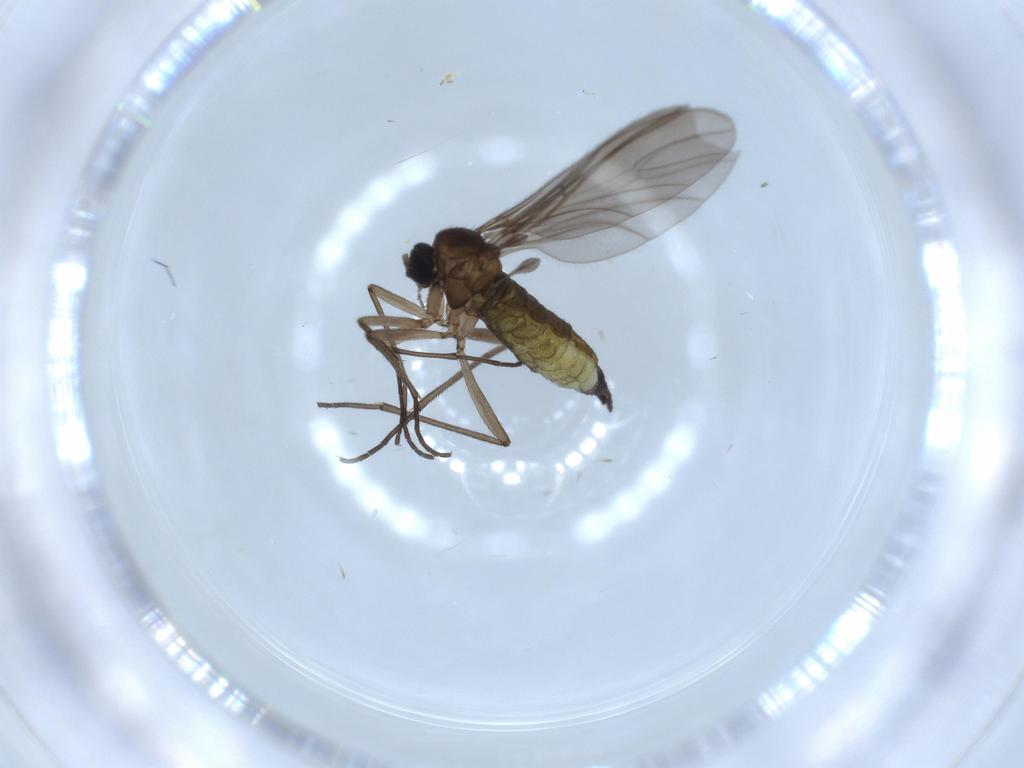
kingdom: Animalia
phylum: Arthropoda
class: Insecta
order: Diptera
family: Sciaridae
